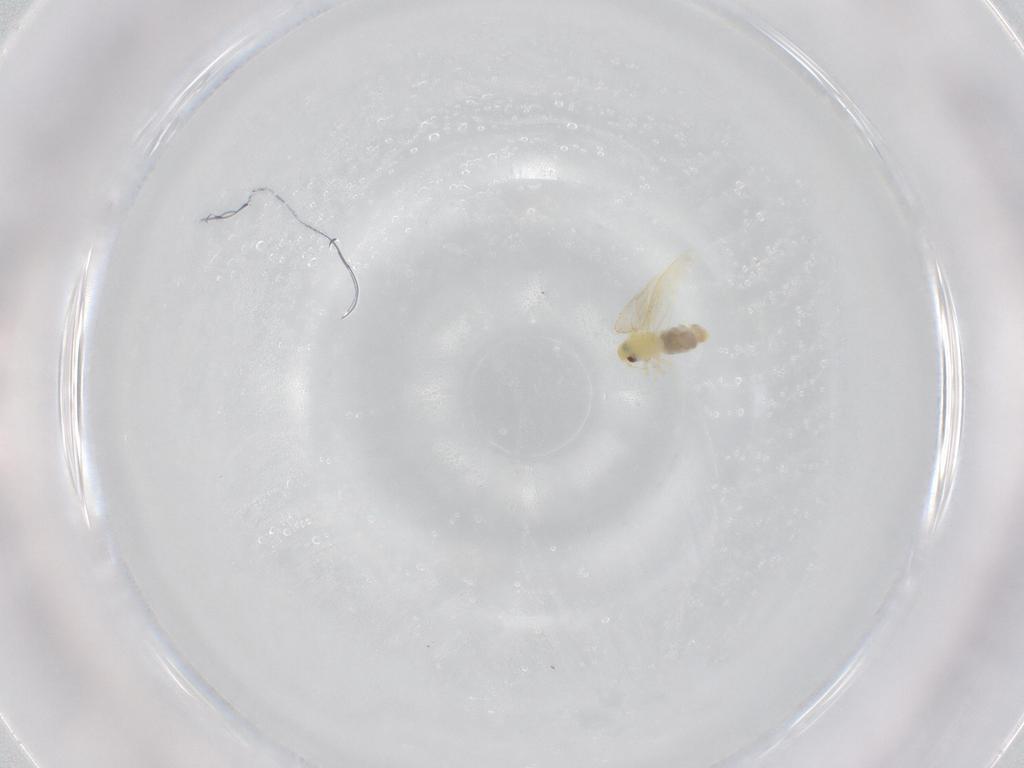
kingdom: Animalia
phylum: Arthropoda
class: Insecta
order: Hemiptera
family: Aleyrodidae
